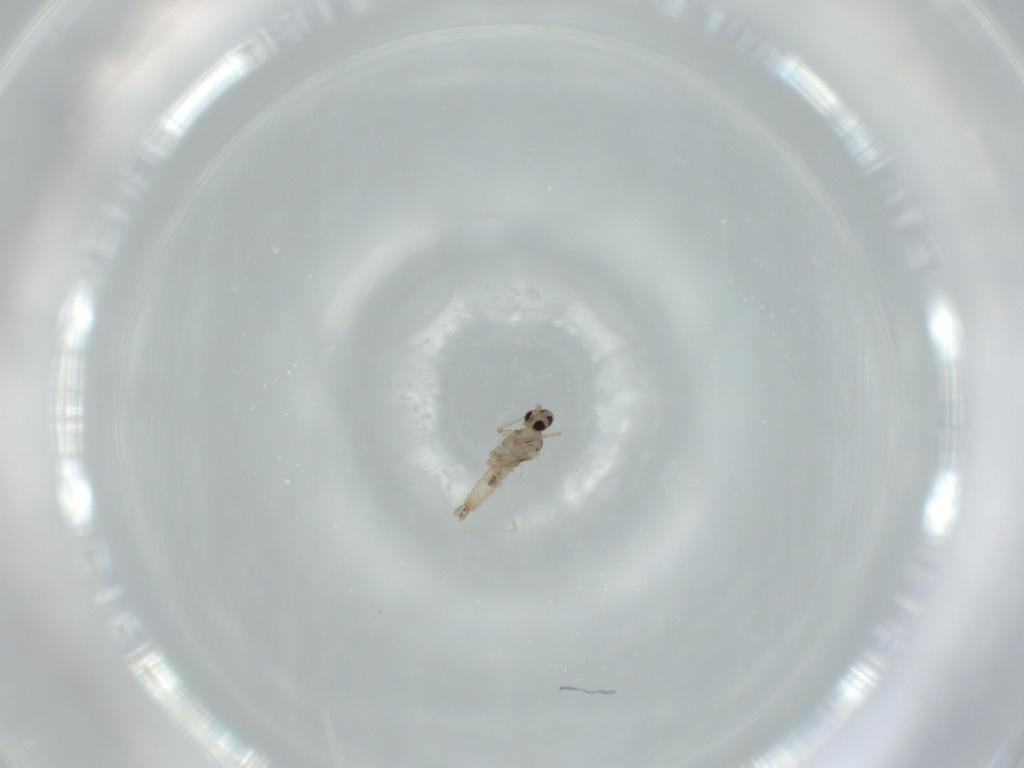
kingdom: Animalia
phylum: Arthropoda
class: Insecta
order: Diptera
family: Cecidomyiidae
